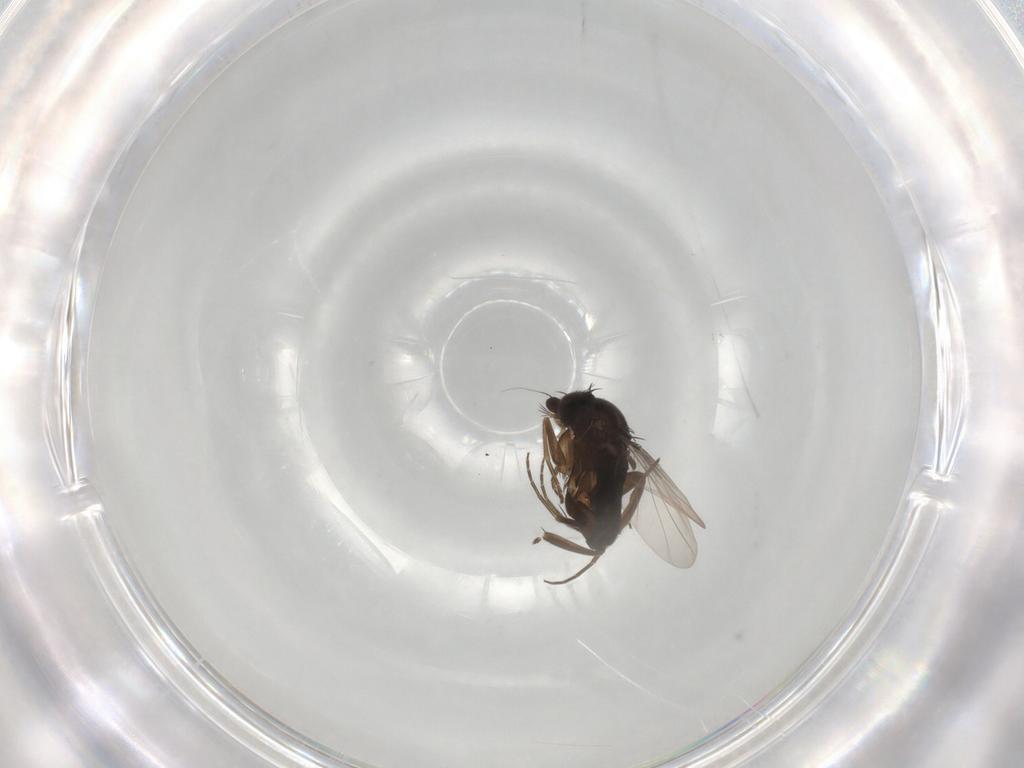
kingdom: Animalia
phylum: Arthropoda
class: Insecta
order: Diptera
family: Phoridae
